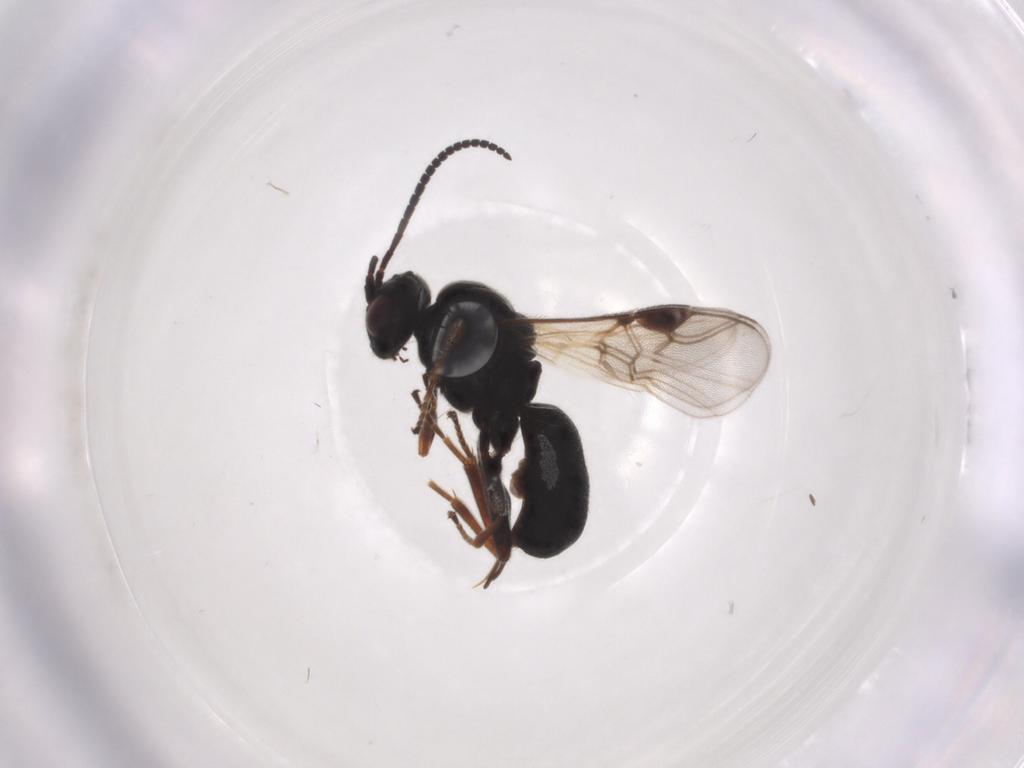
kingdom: Animalia
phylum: Arthropoda
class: Insecta
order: Hymenoptera
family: Braconidae
